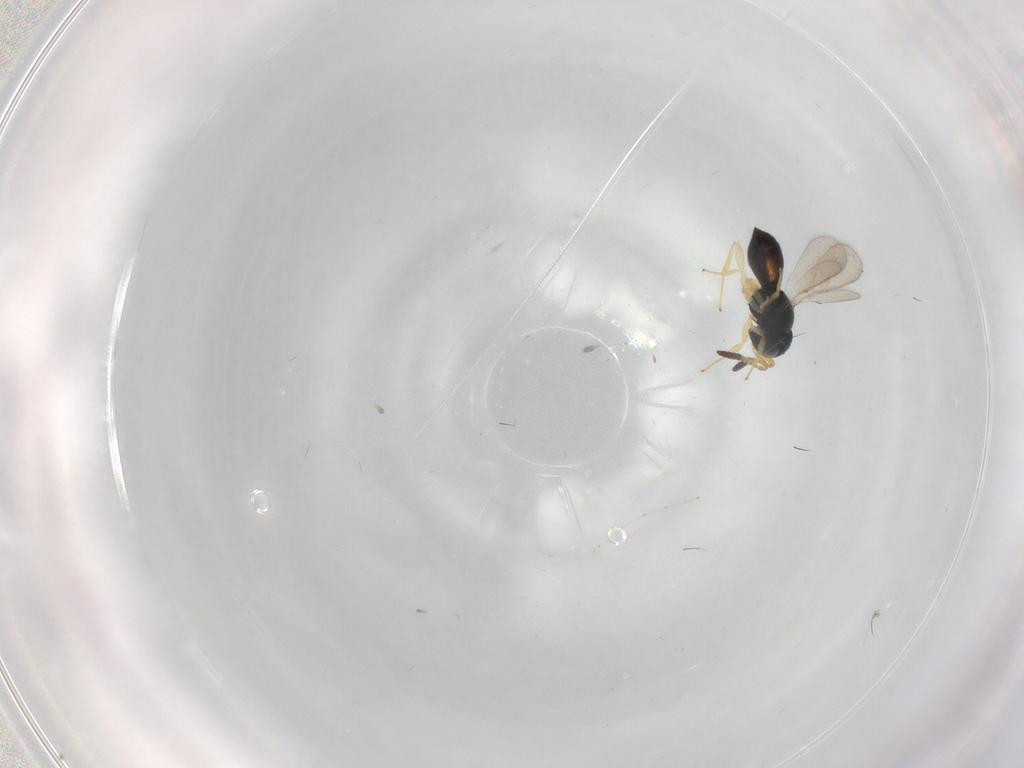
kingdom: Animalia
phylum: Arthropoda
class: Insecta
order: Hymenoptera
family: Scelionidae
